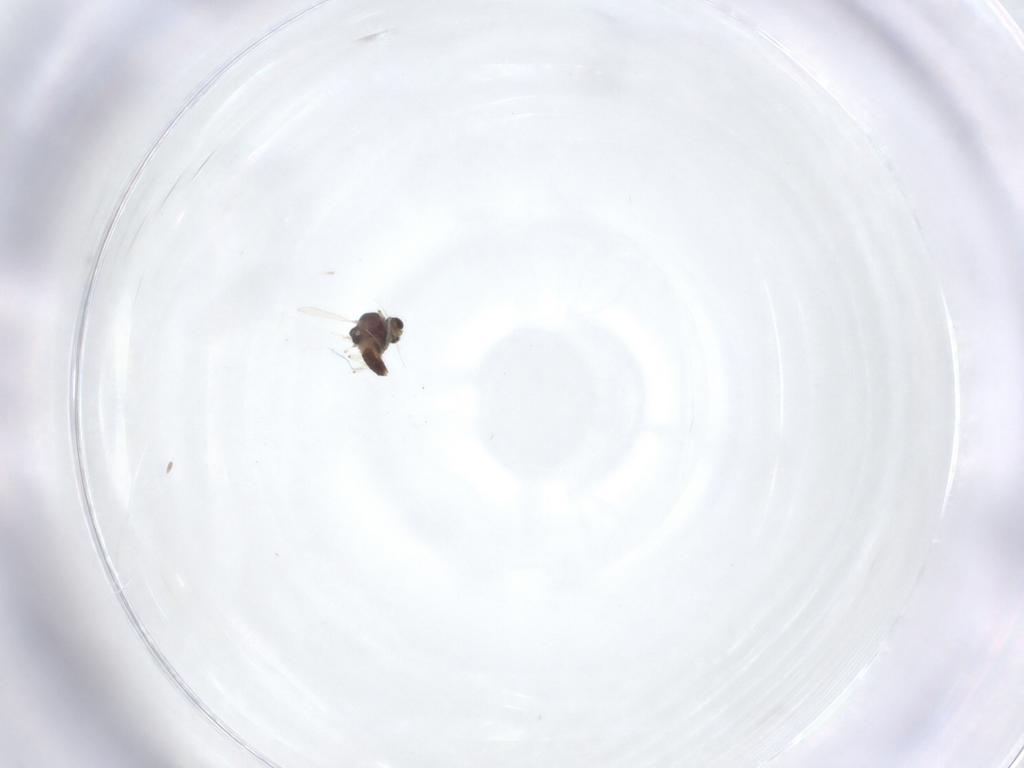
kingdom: Animalia
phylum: Arthropoda
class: Insecta
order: Diptera
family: Chironomidae
